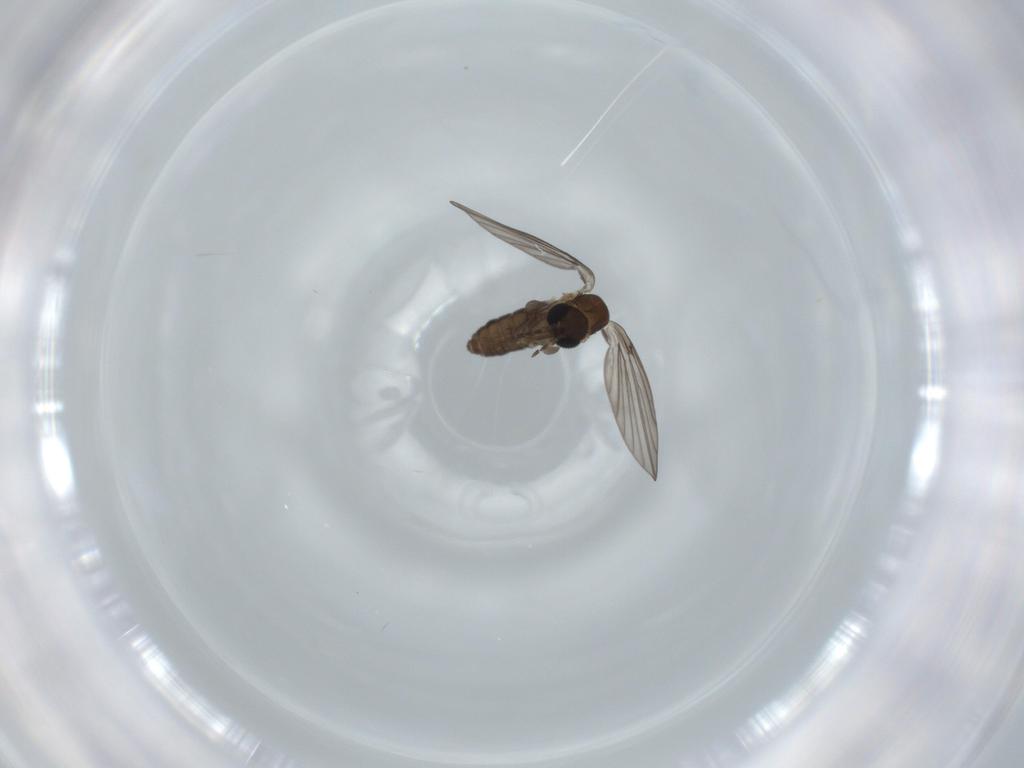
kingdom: Animalia
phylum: Arthropoda
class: Insecta
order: Diptera
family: Psychodidae
